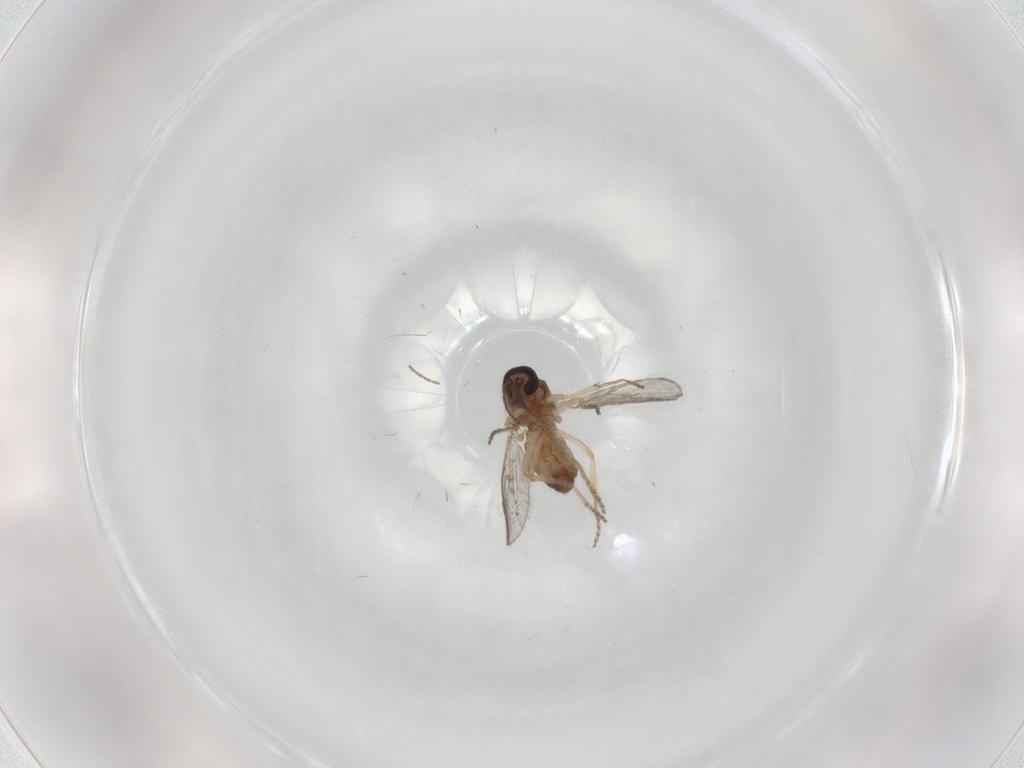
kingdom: Animalia
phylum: Arthropoda
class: Insecta
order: Diptera
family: Ceratopogonidae
